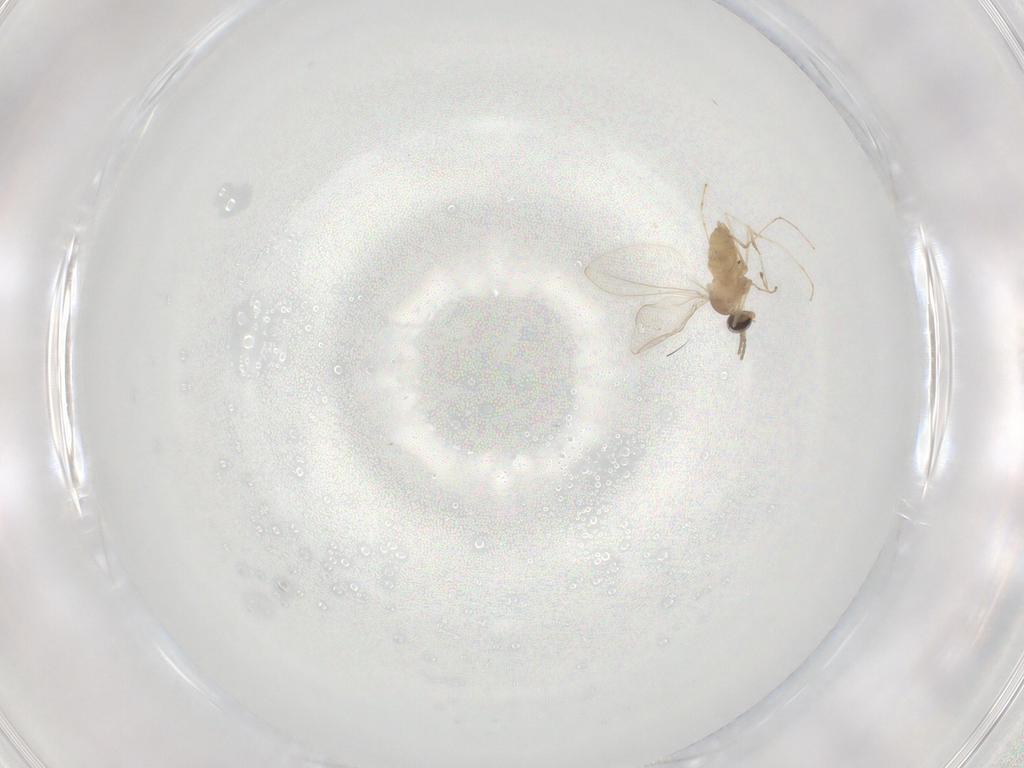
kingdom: Animalia
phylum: Arthropoda
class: Insecta
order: Diptera
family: Cecidomyiidae
